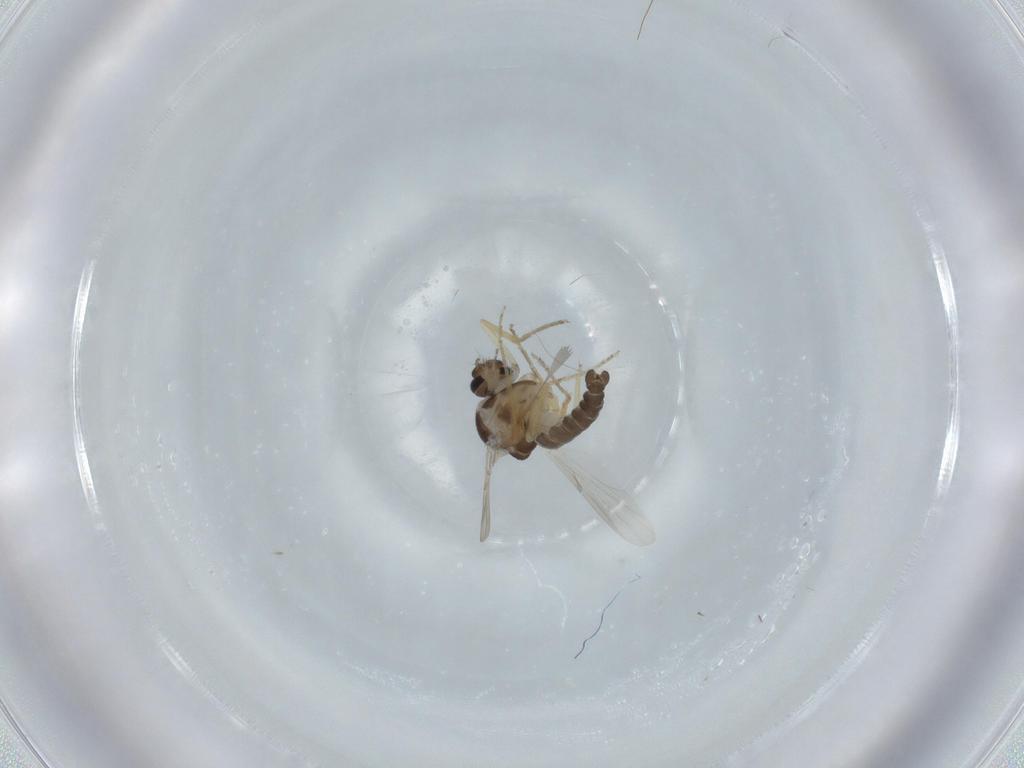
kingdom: Animalia
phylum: Arthropoda
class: Insecta
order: Diptera
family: Ceratopogonidae
